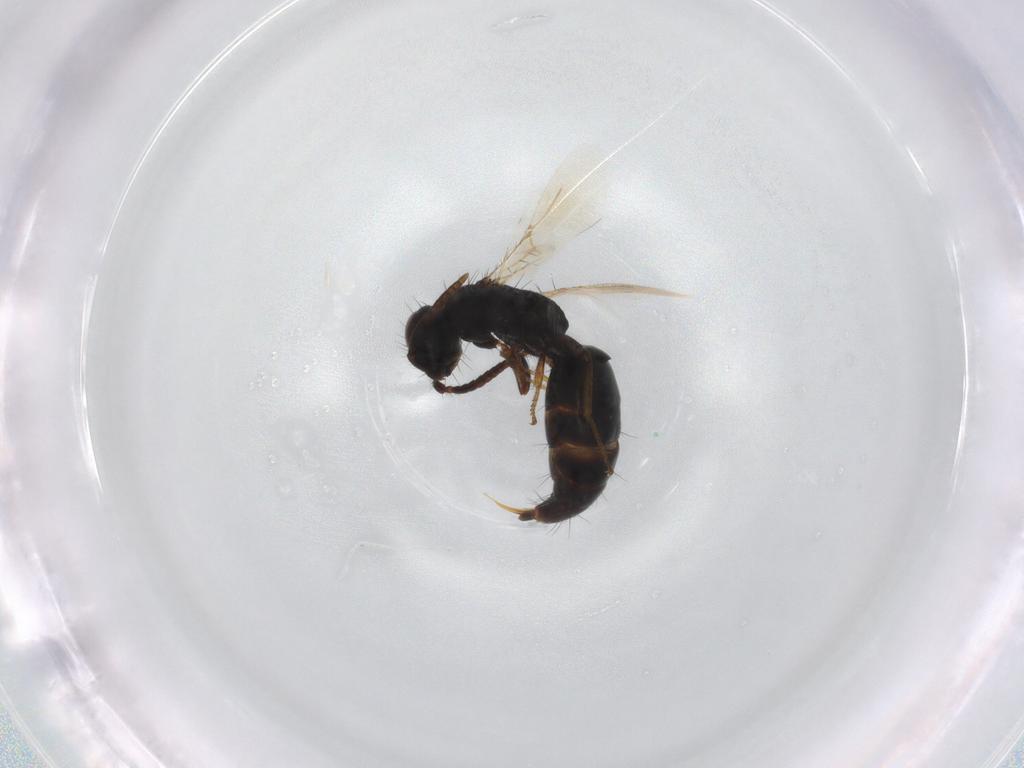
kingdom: Animalia
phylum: Arthropoda
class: Insecta
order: Hymenoptera
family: Bethylidae
